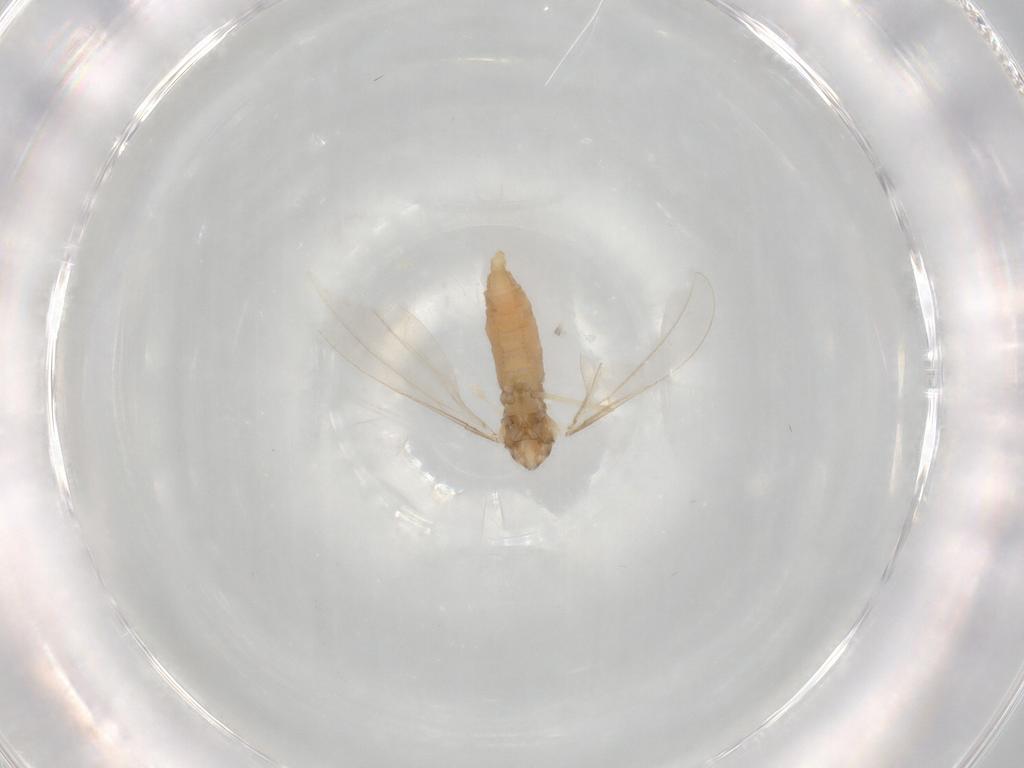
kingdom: Animalia
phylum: Arthropoda
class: Insecta
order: Diptera
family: Cecidomyiidae
